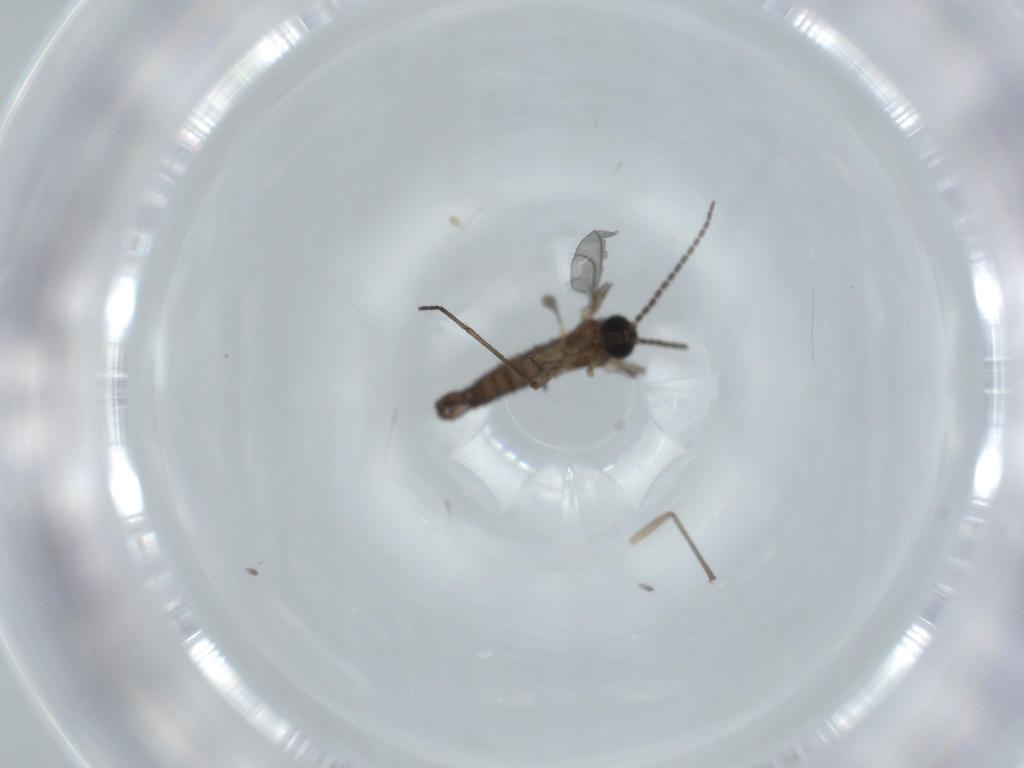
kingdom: Animalia
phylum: Arthropoda
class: Insecta
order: Diptera
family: Sciaridae
